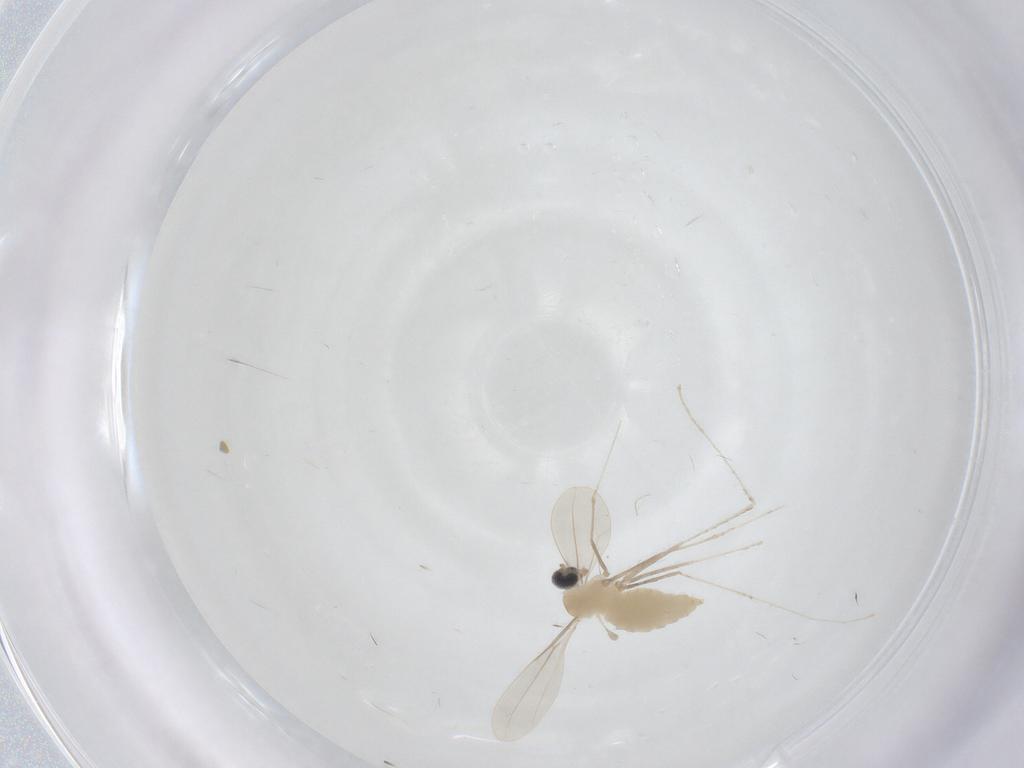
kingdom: Animalia
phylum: Arthropoda
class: Insecta
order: Diptera
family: Cecidomyiidae
